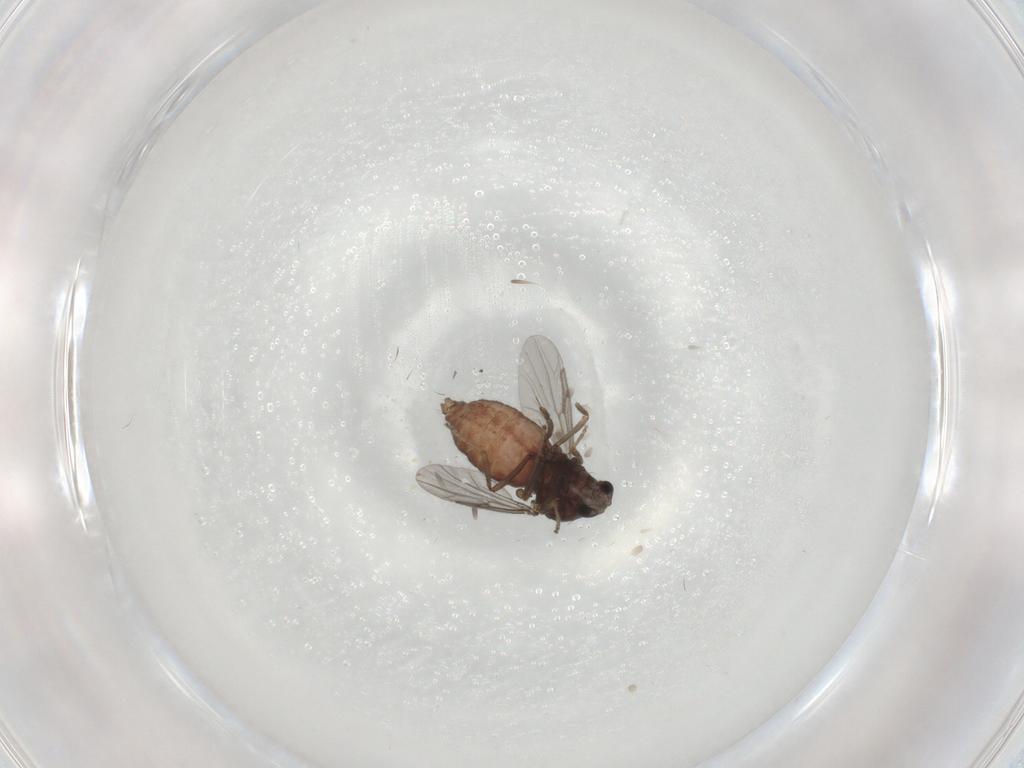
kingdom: Animalia
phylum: Arthropoda
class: Insecta
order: Diptera
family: Ceratopogonidae
